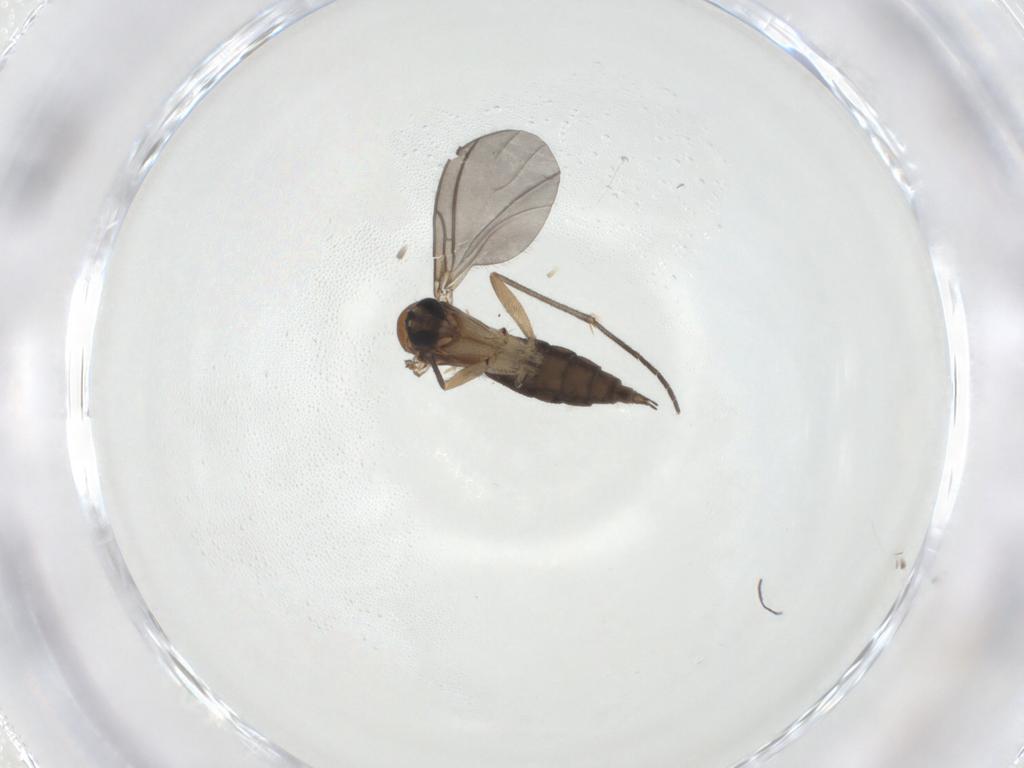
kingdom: Animalia
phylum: Arthropoda
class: Insecta
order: Diptera
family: Sciaridae
